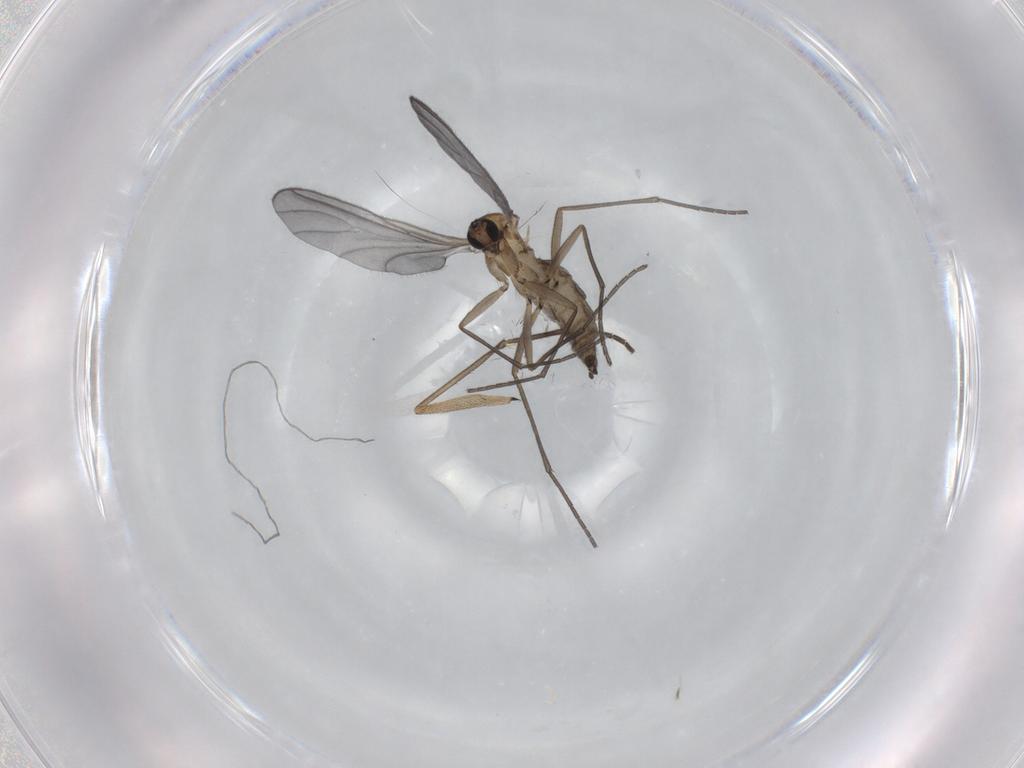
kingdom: Animalia
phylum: Arthropoda
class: Insecta
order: Diptera
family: Sciaridae
